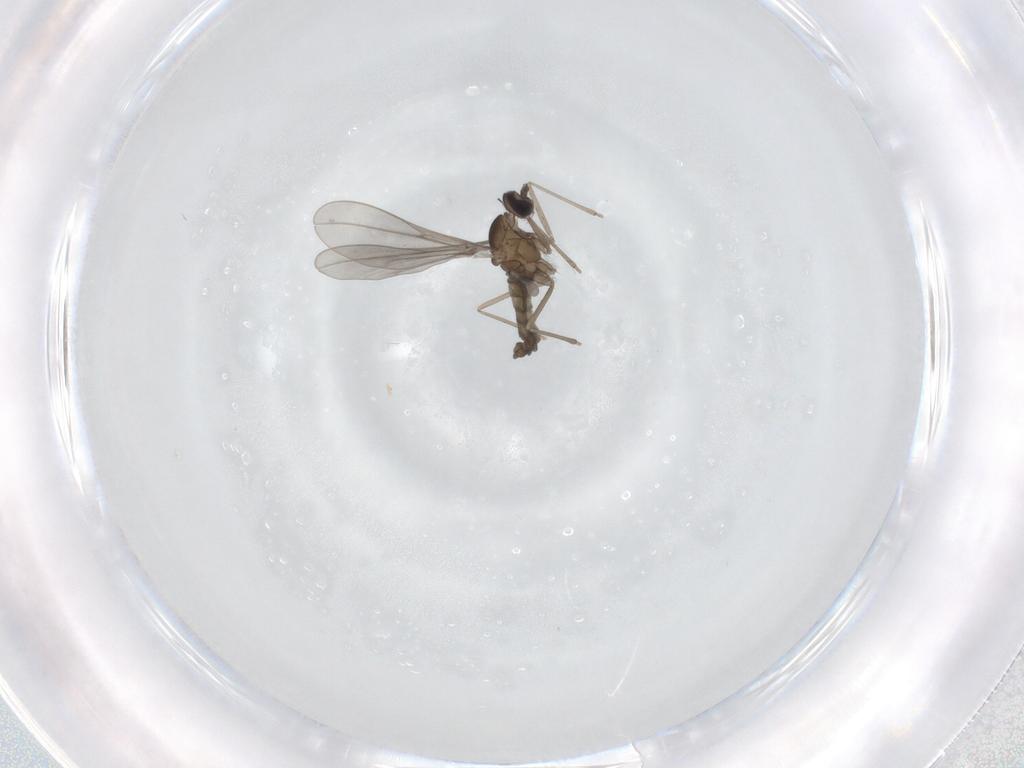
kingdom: Animalia
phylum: Arthropoda
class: Insecta
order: Diptera
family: Cecidomyiidae
